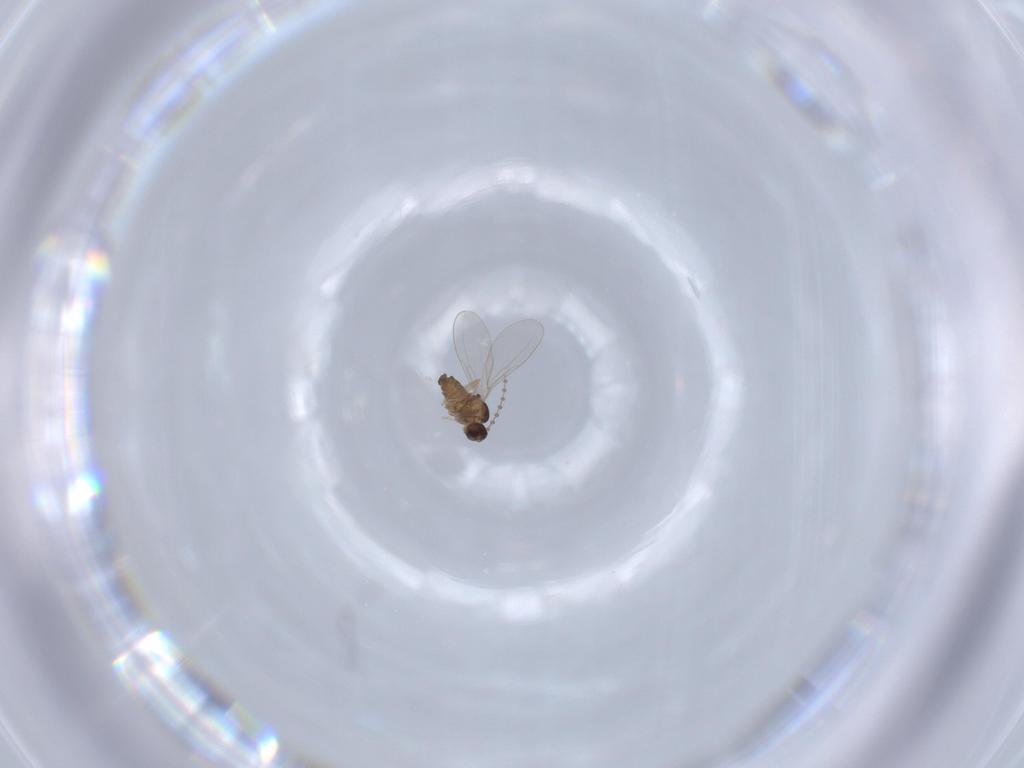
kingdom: Animalia
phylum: Arthropoda
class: Insecta
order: Diptera
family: Cecidomyiidae
